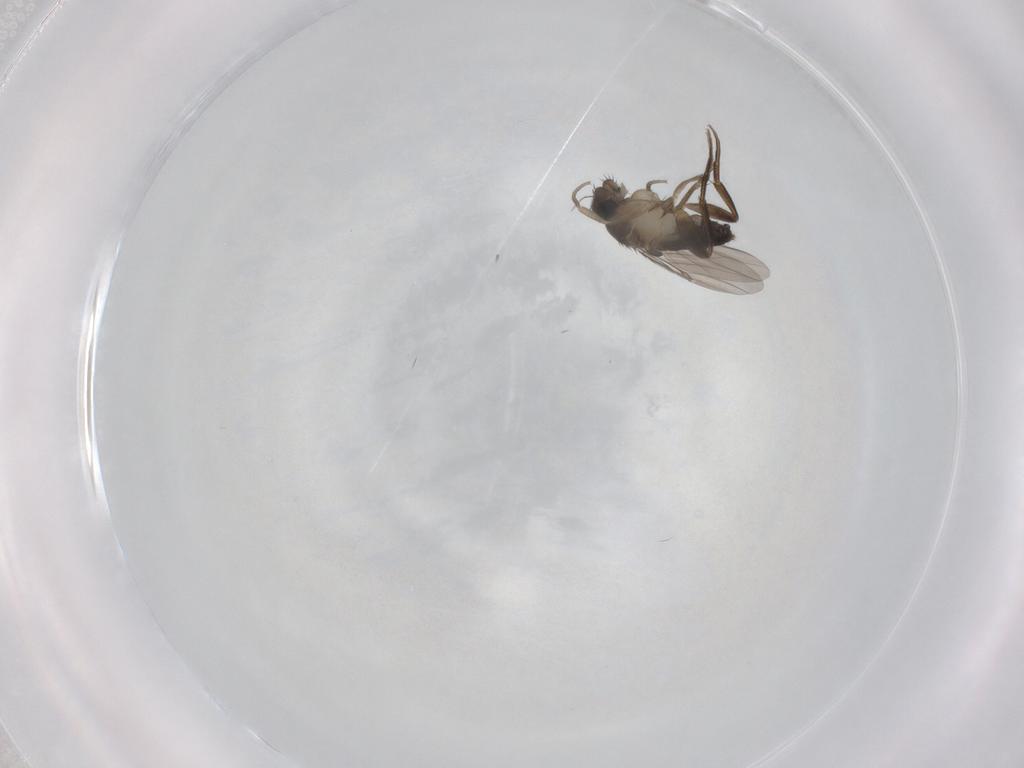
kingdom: Animalia
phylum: Arthropoda
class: Insecta
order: Diptera
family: Phoridae
